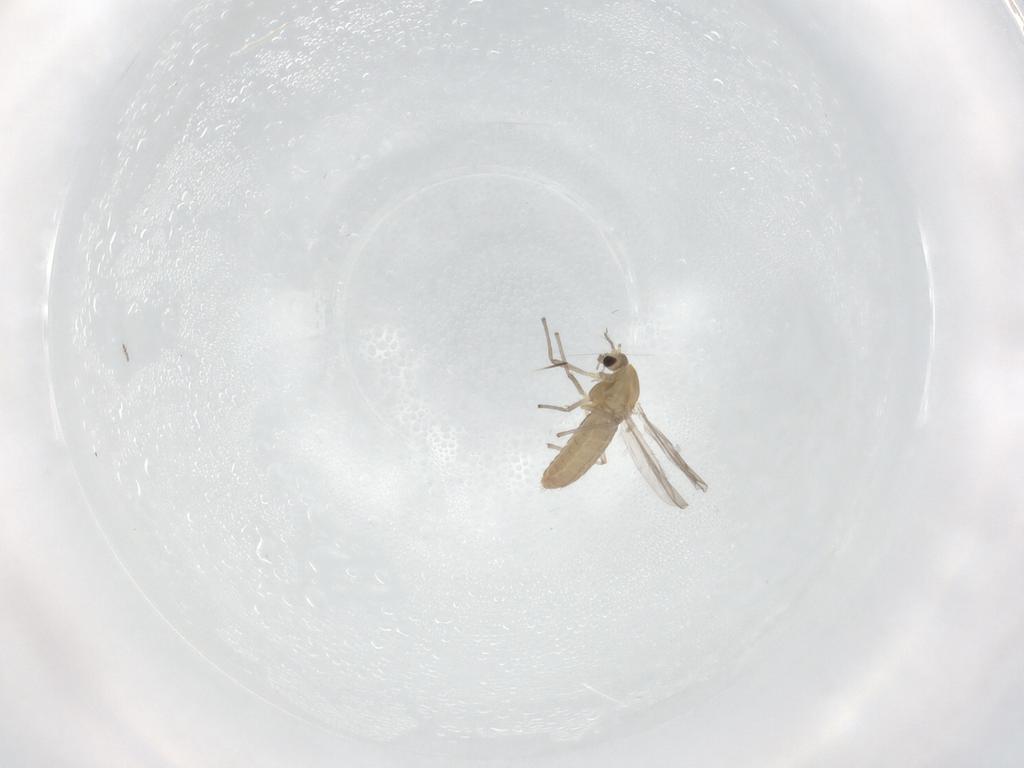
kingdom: Animalia
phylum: Arthropoda
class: Insecta
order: Diptera
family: Chironomidae
